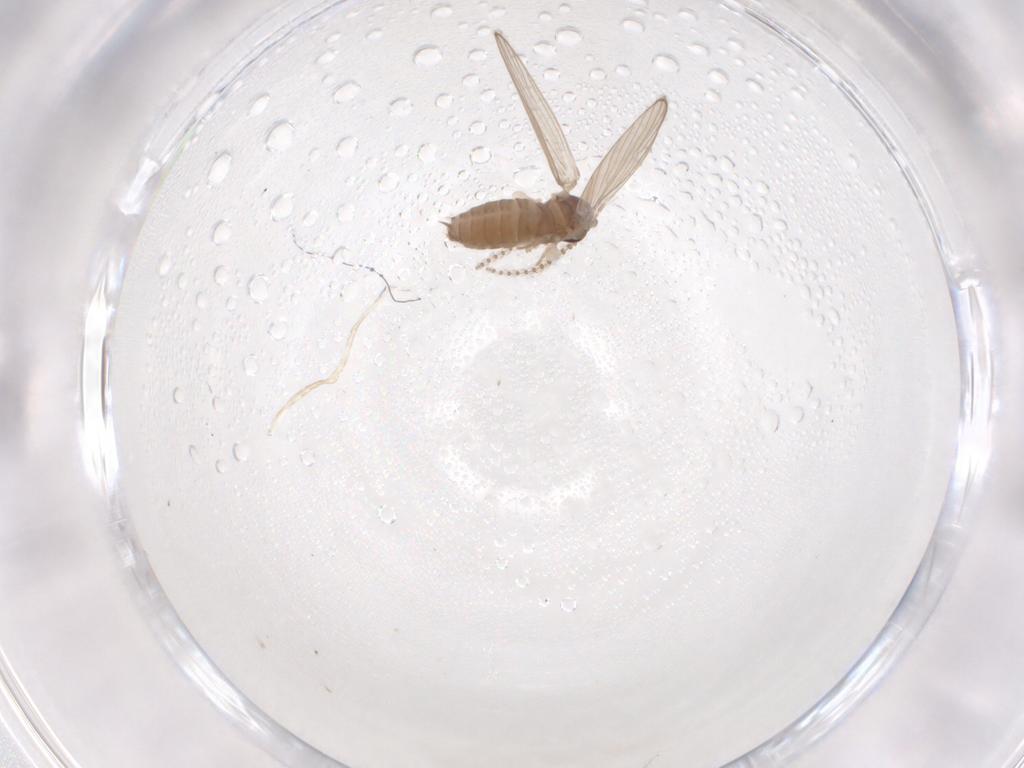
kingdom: Animalia
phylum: Arthropoda
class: Insecta
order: Diptera
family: Psychodidae
